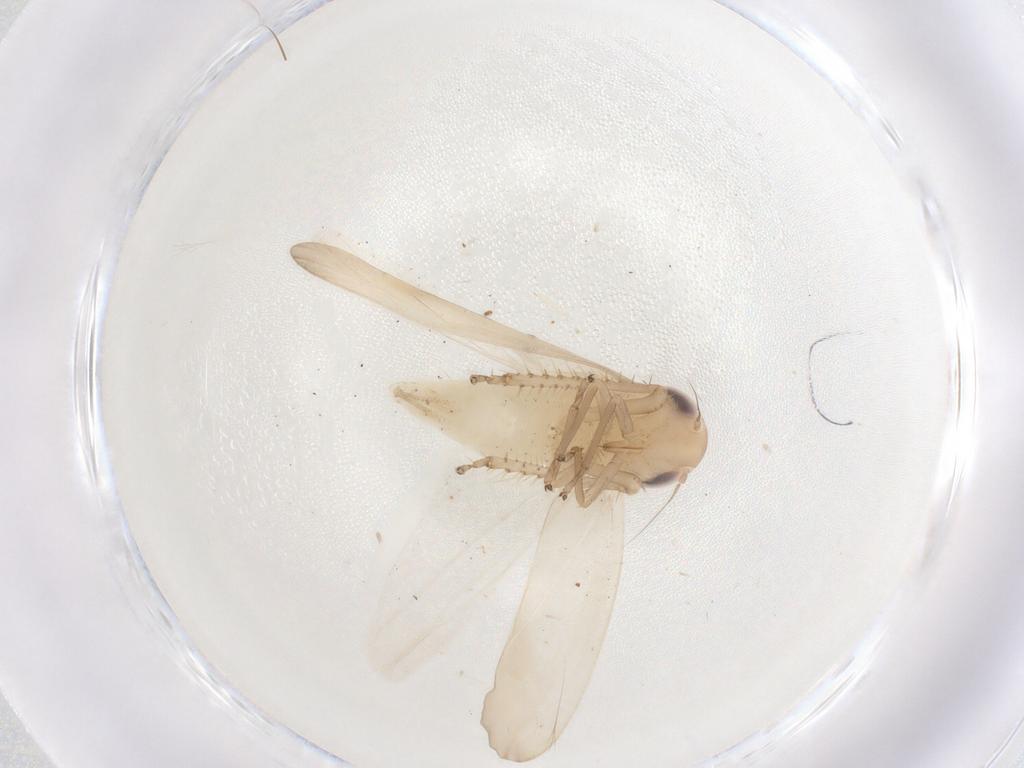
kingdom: Animalia
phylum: Arthropoda
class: Insecta
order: Hemiptera
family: Cicadellidae
